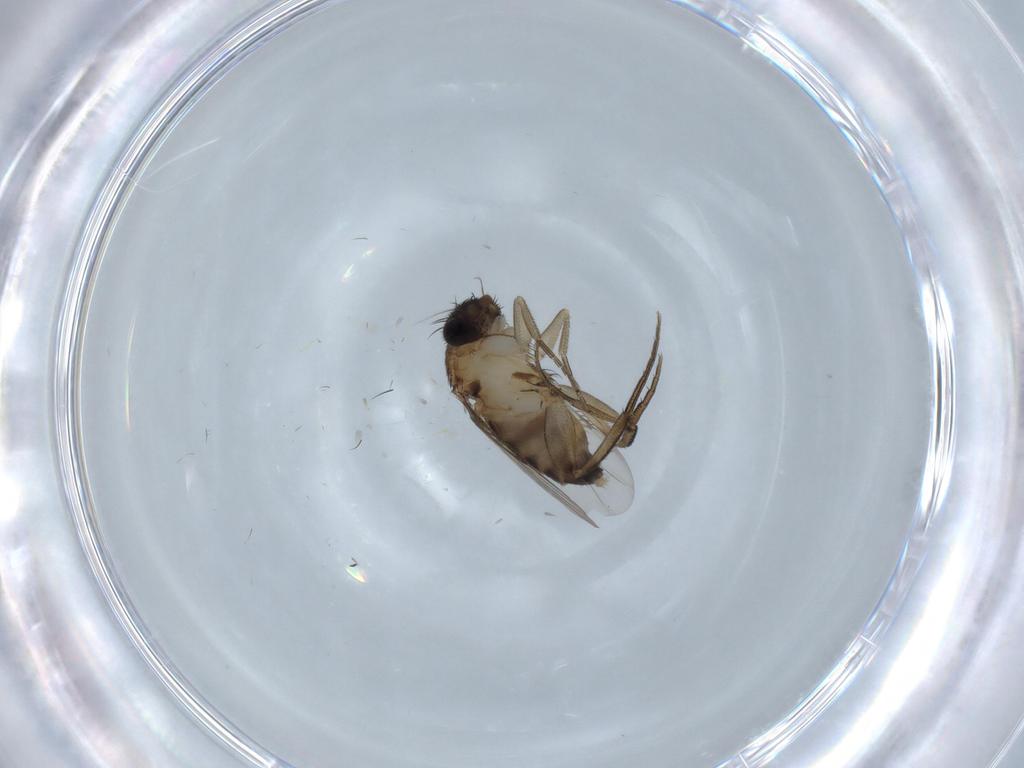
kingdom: Animalia
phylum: Arthropoda
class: Insecta
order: Diptera
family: Phoridae
